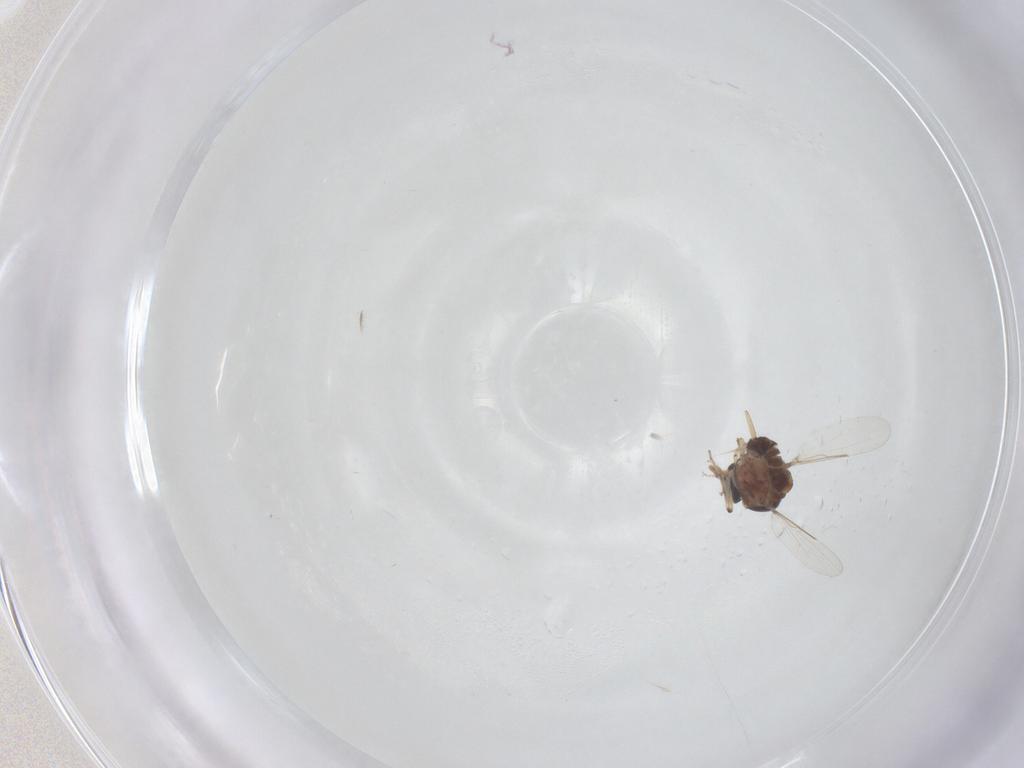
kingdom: Animalia
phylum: Arthropoda
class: Insecta
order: Diptera
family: Ceratopogonidae
